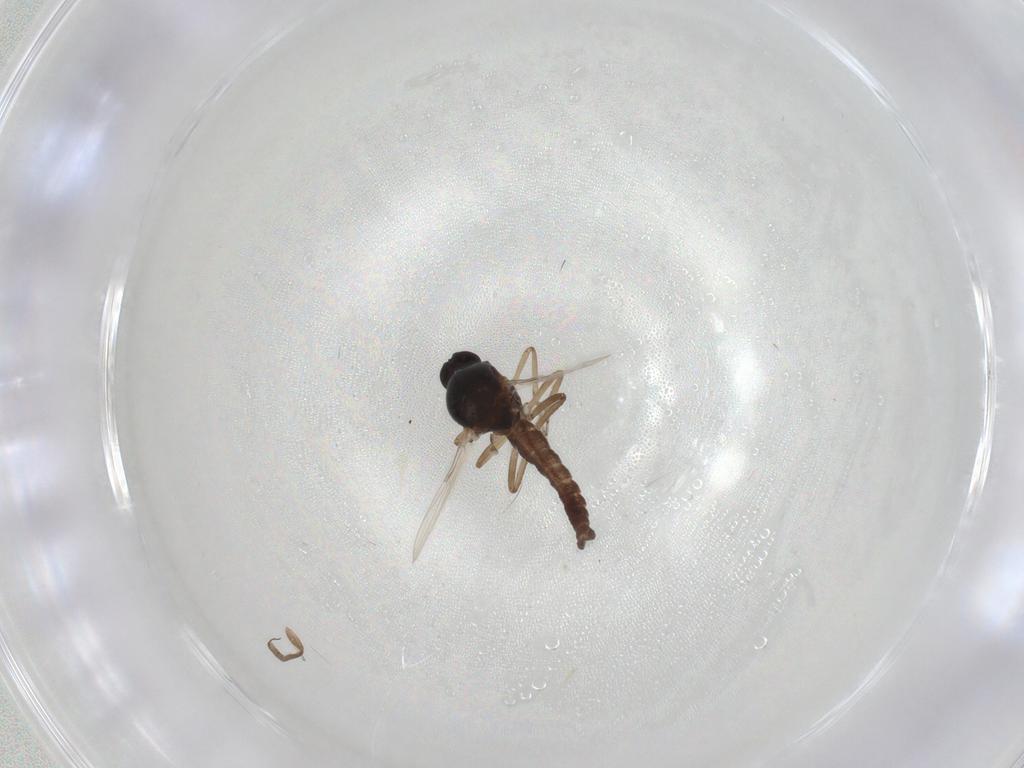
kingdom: Animalia
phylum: Arthropoda
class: Insecta
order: Diptera
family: Ceratopogonidae
